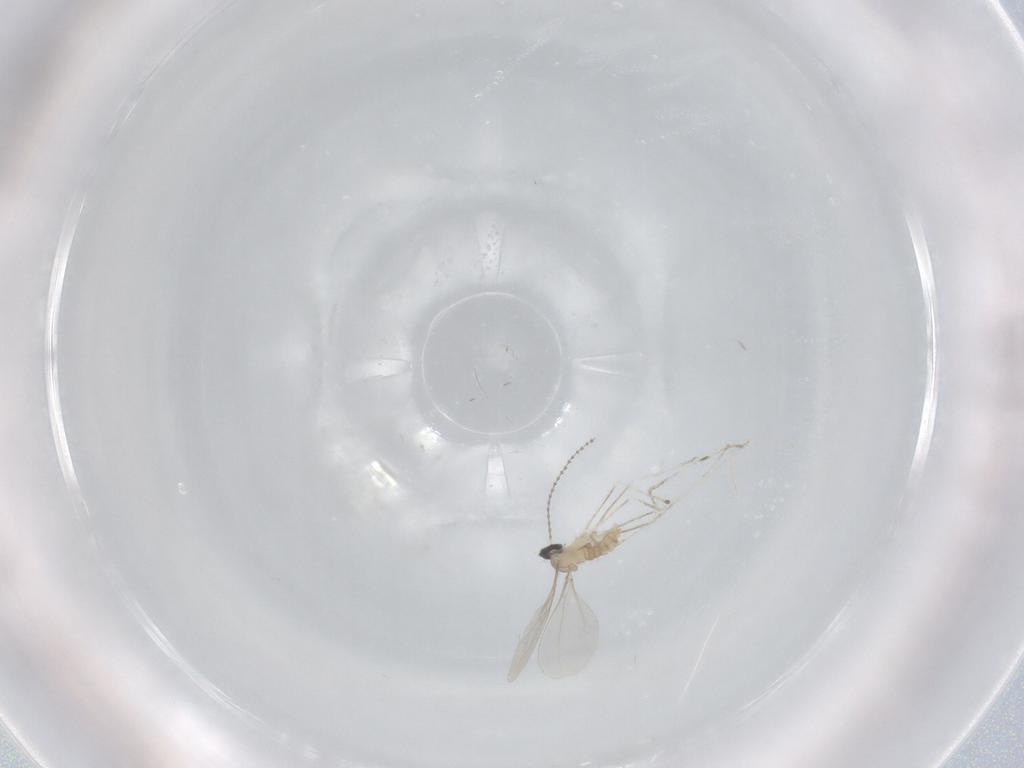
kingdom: Animalia
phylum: Arthropoda
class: Insecta
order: Diptera
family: Cecidomyiidae
